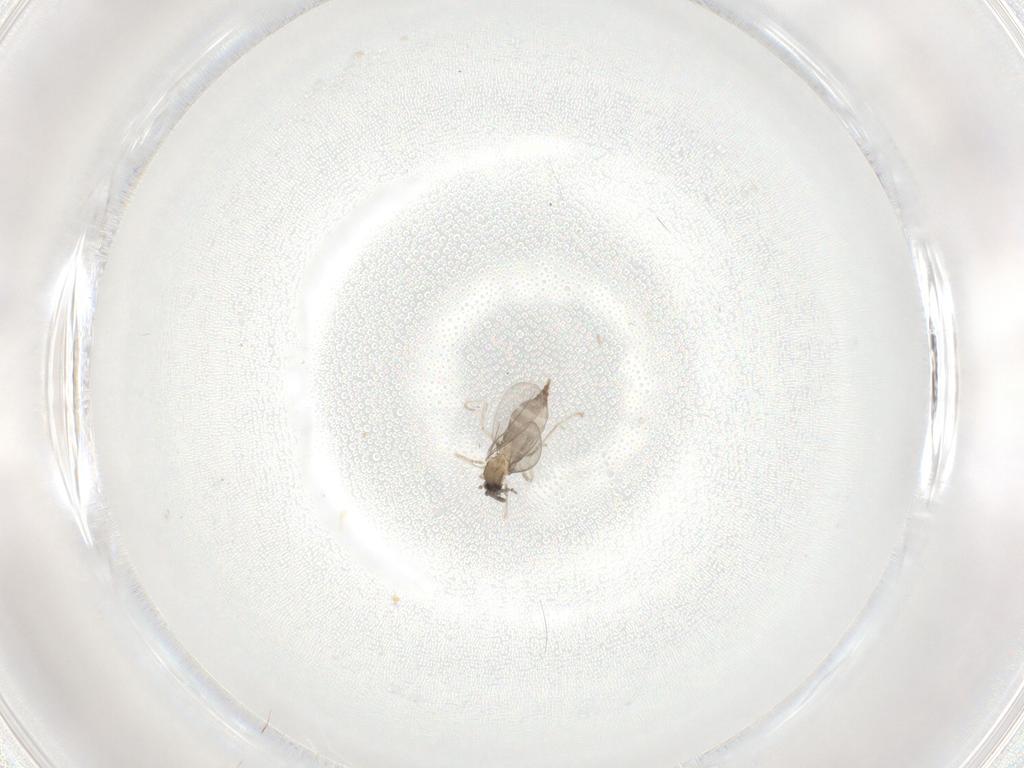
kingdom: Animalia
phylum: Arthropoda
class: Insecta
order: Diptera
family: Cecidomyiidae
